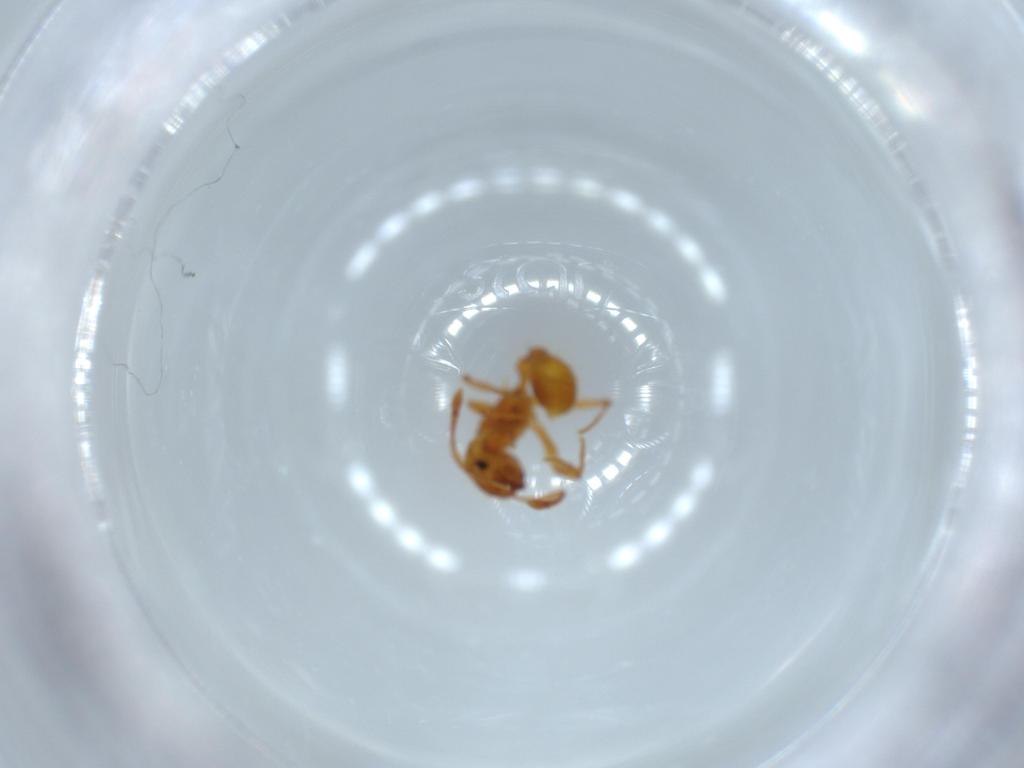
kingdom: Animalia
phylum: Arthropoda
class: Insecta
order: Hymenoptera
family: Formicidae
